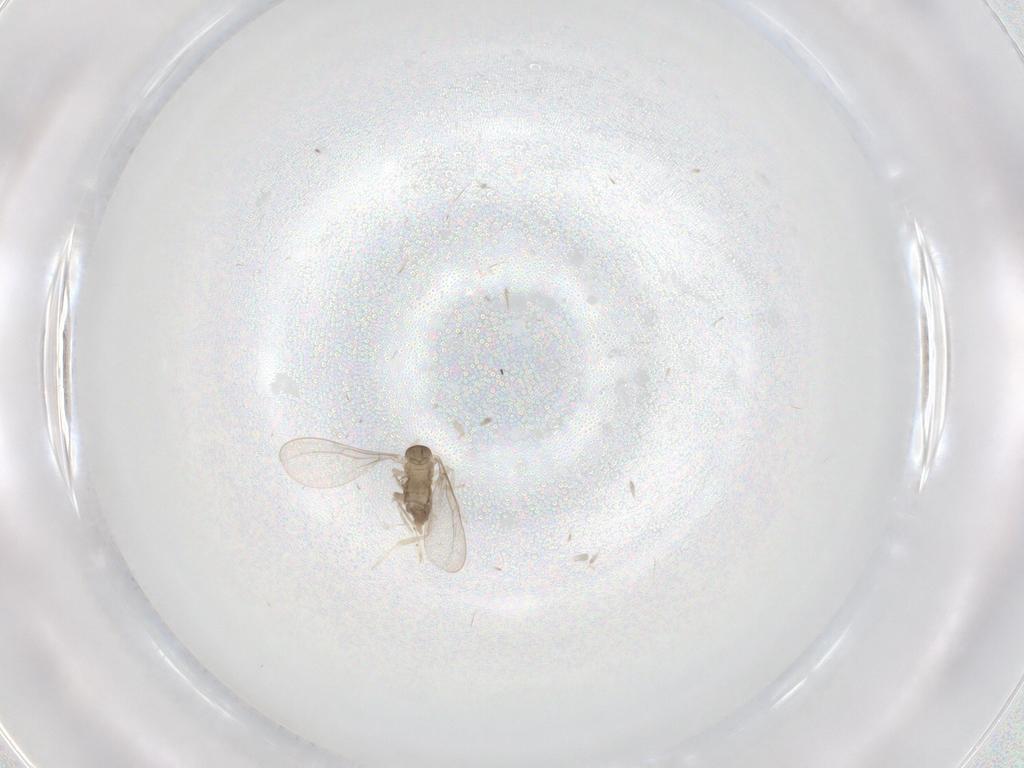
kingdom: Animalia
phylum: Arthropoda
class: Insecta
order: Diptera
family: Cecidomyiidae
